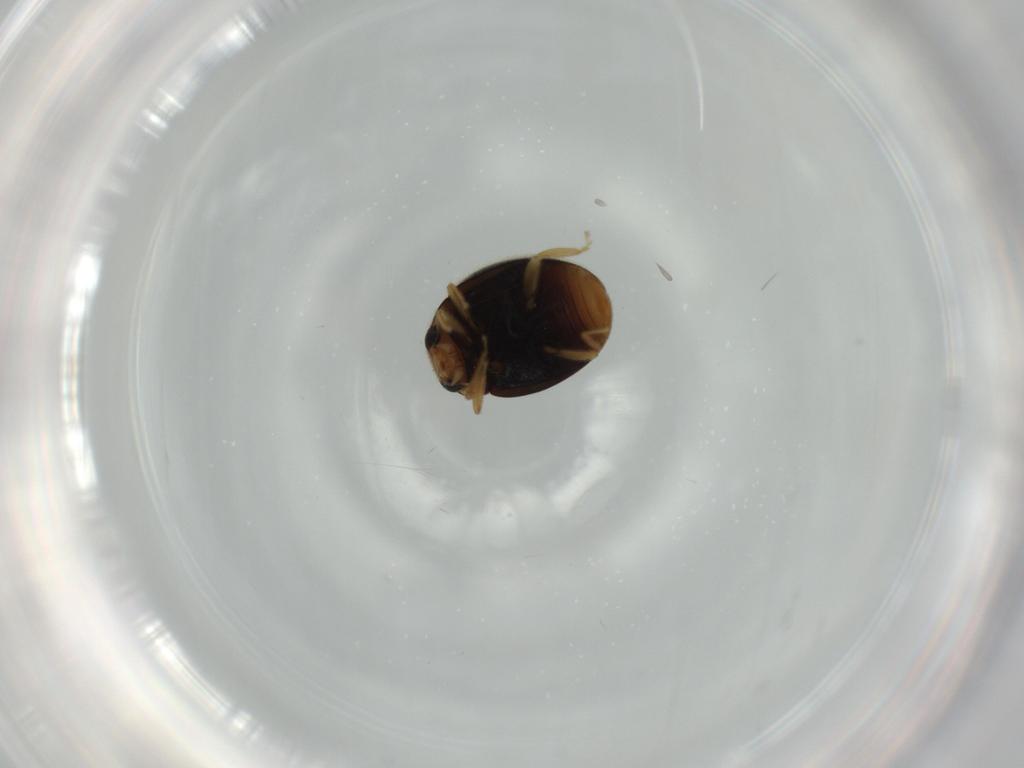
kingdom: Animalia
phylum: Arthropoda
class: Insecta
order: Coleoptera
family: Coccinellidae
